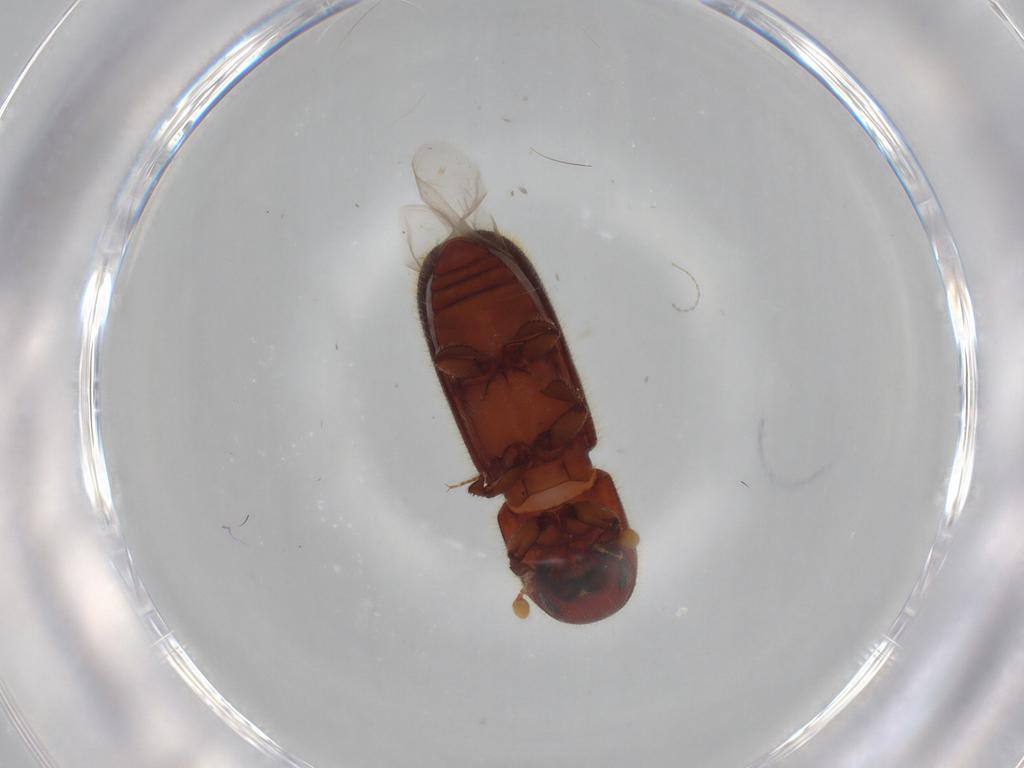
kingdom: Animalia
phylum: Arthropoda
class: Insecta
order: Coleoptera
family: Curculionidae
